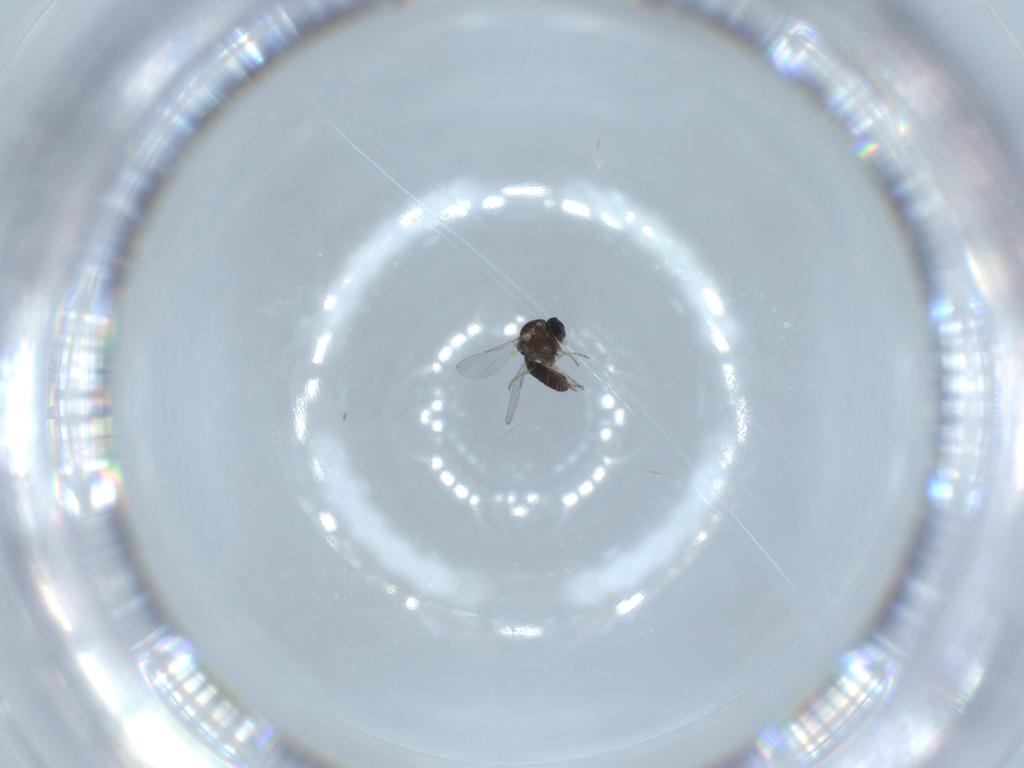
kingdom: Animalia
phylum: Arthropoda
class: Insecta
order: Diptera
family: Ceratopogonidae
